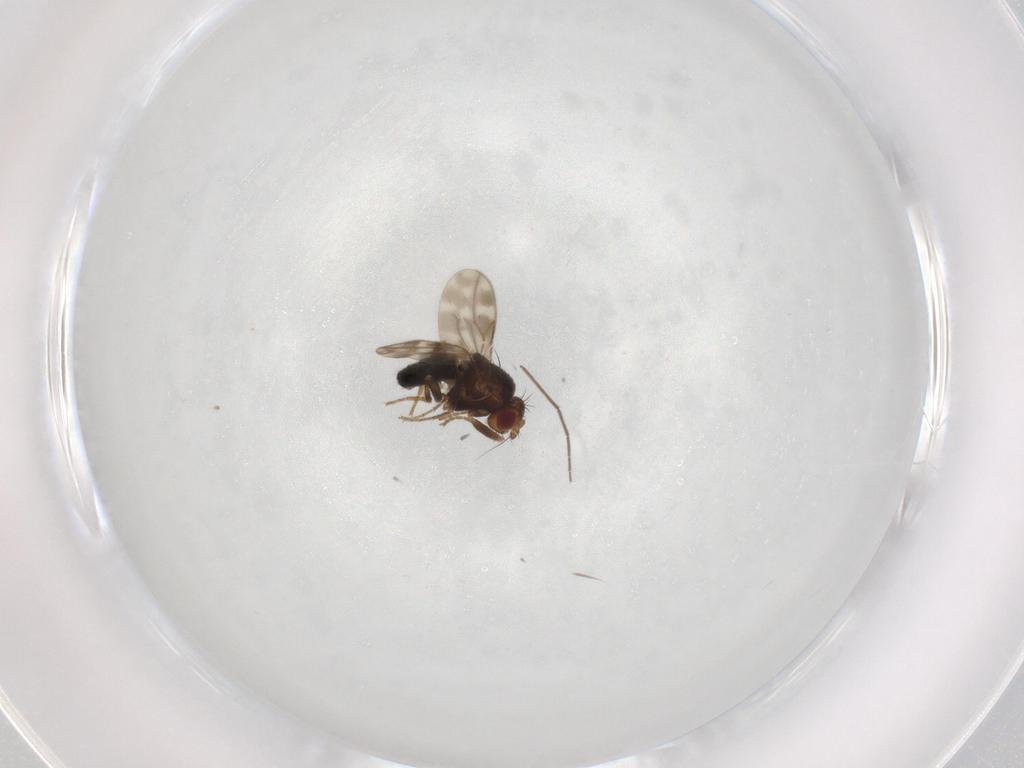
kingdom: Animalia
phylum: Arthropoda
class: Insecta
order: Diptera
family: Sphaeroceridae
